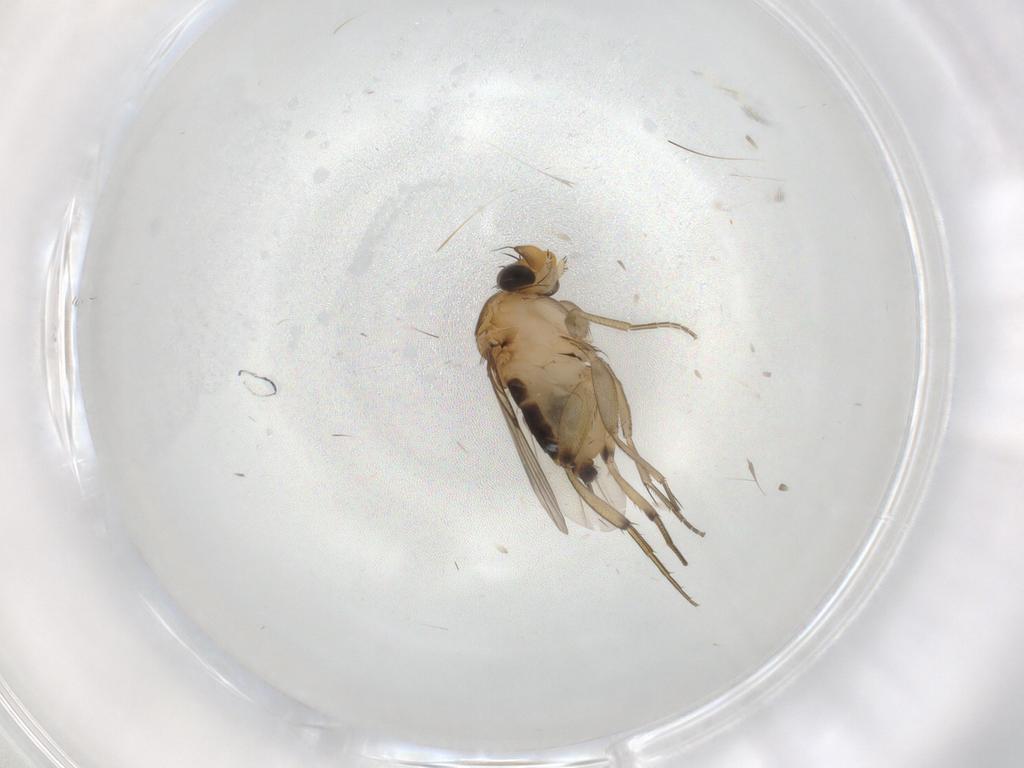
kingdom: Animalia
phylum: Arthropoda
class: Insecta
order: Diptera
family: Phoridae
